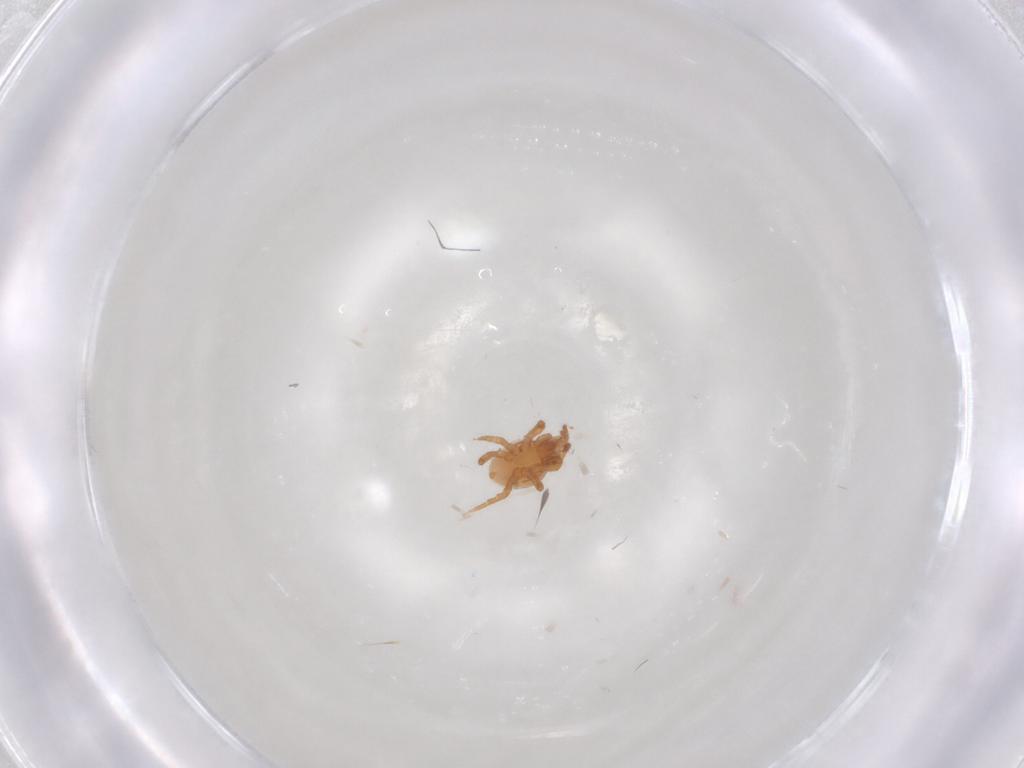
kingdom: Animalia
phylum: Arthropoda
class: Arachnida
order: Mesostigmata
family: Parasitidae
